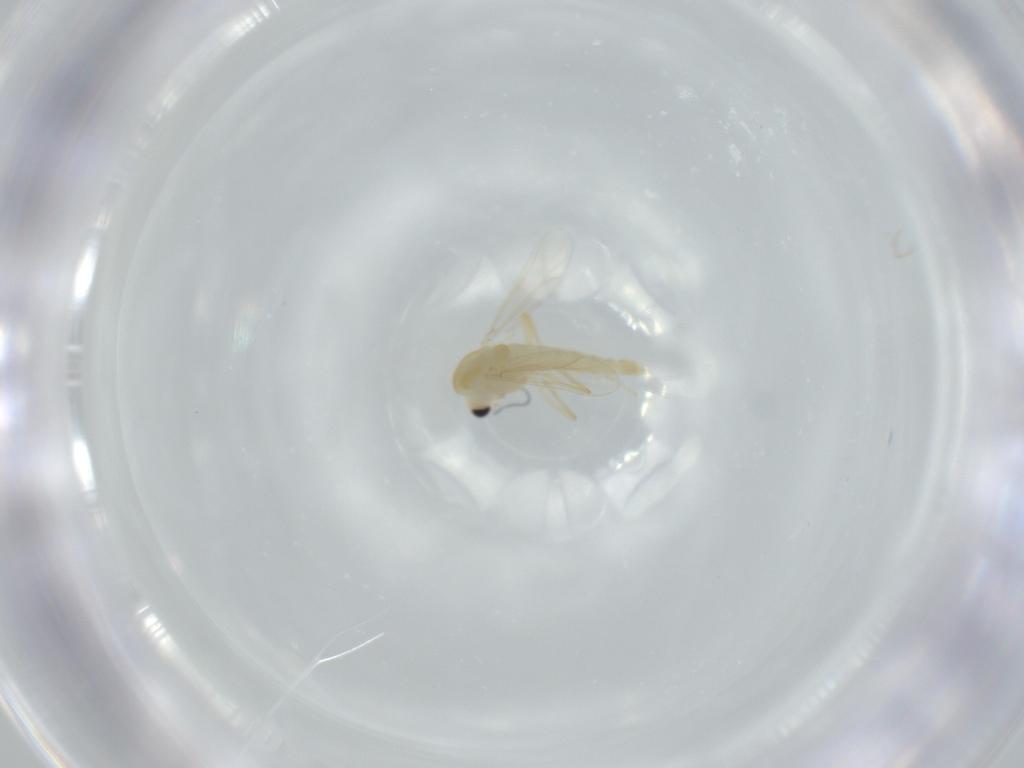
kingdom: Animalia
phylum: Arthropoda
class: Insecta
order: Diptera
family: Chironomidae
